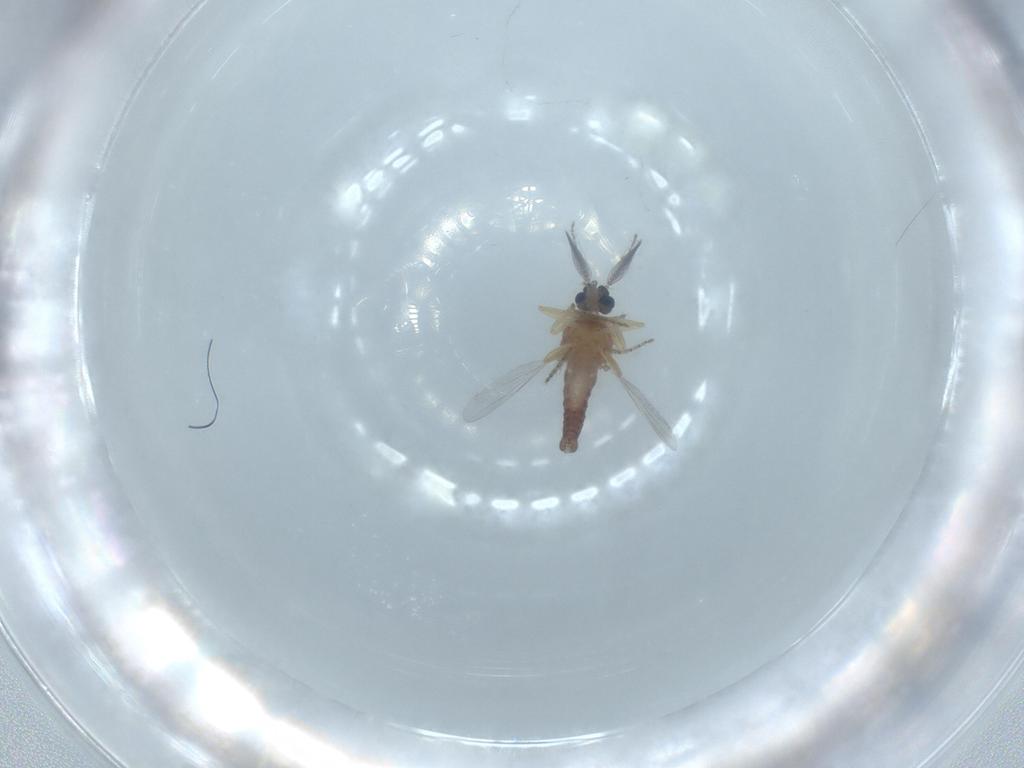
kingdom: Animalia
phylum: Arthropoda
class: Insecta
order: Diptera
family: Ceratopogonidae
